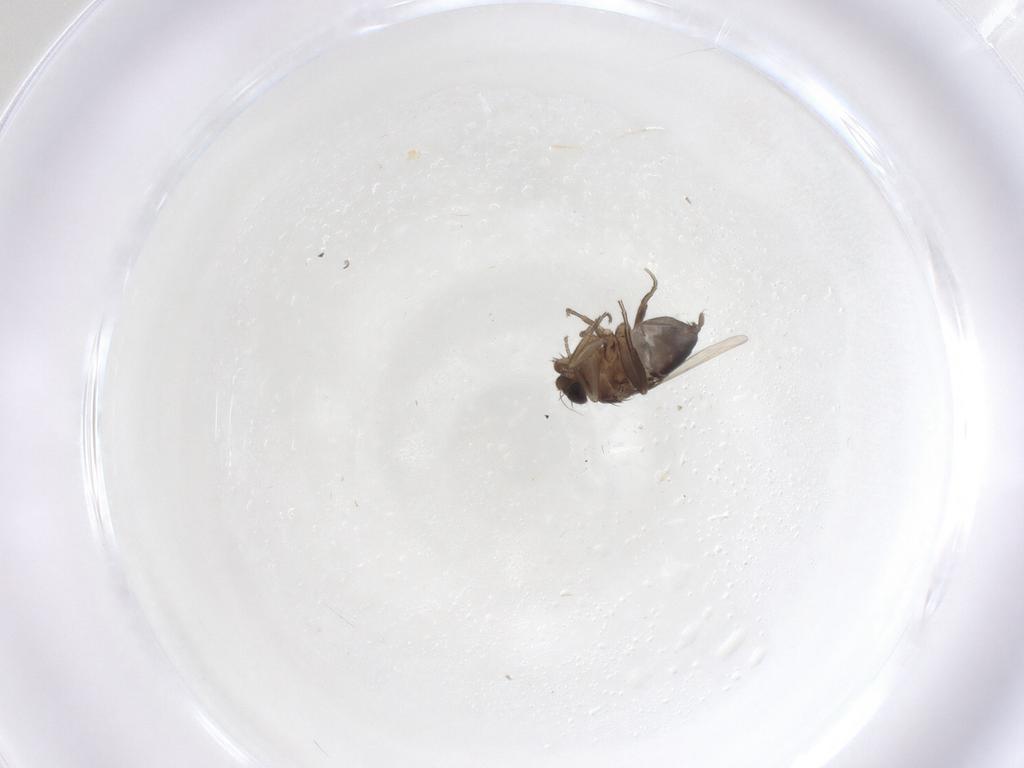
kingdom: Animalia
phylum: Arthropoda
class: Insecta
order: Diptera
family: Phoridae
